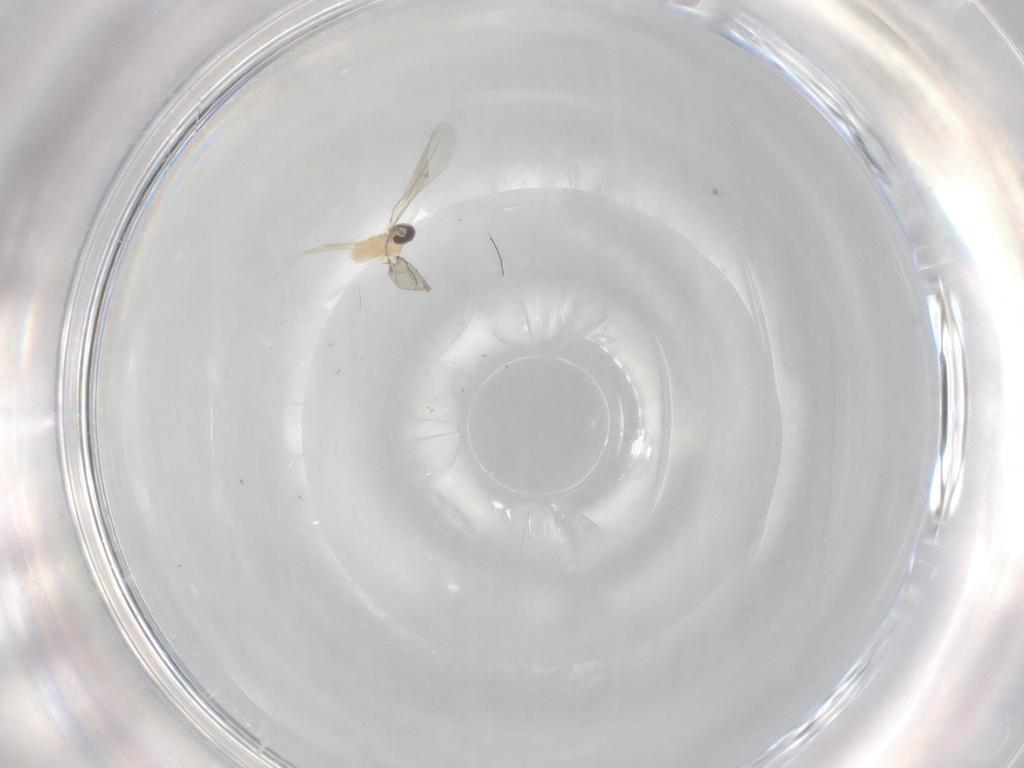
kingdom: Animalia
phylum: Arthropoda
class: Insecta
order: Diptera
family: Cecidomyiidae
